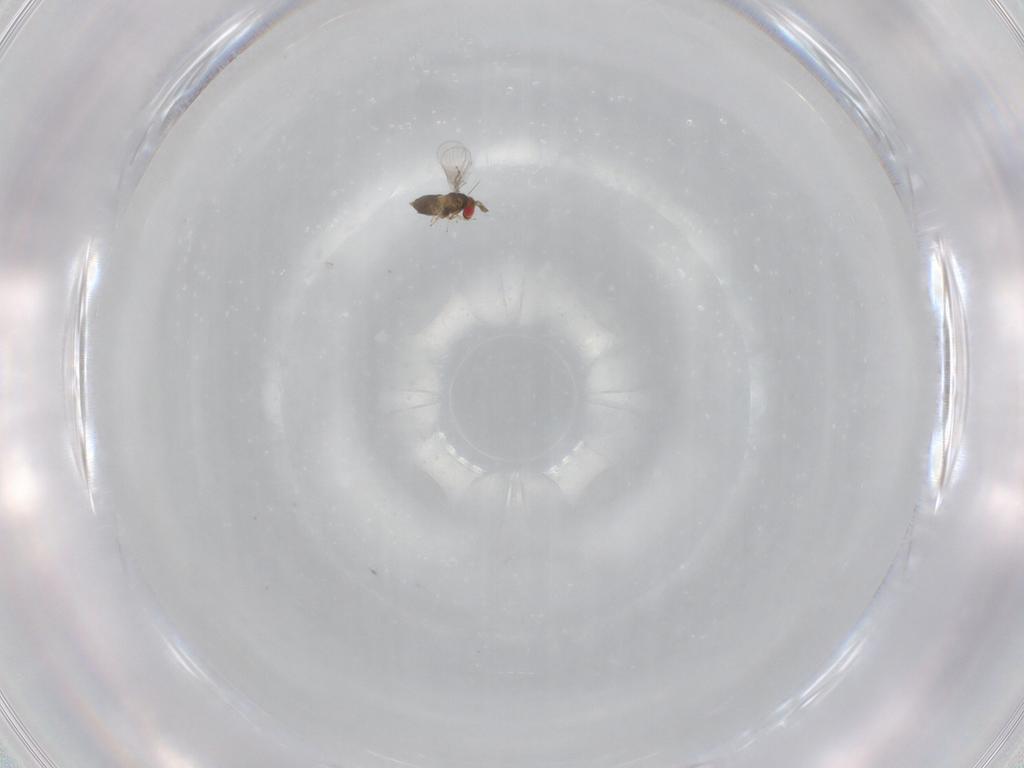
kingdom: Animalia
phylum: Arthropoda
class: Insecta
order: Hymenoptera
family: Trichogrammatidae
